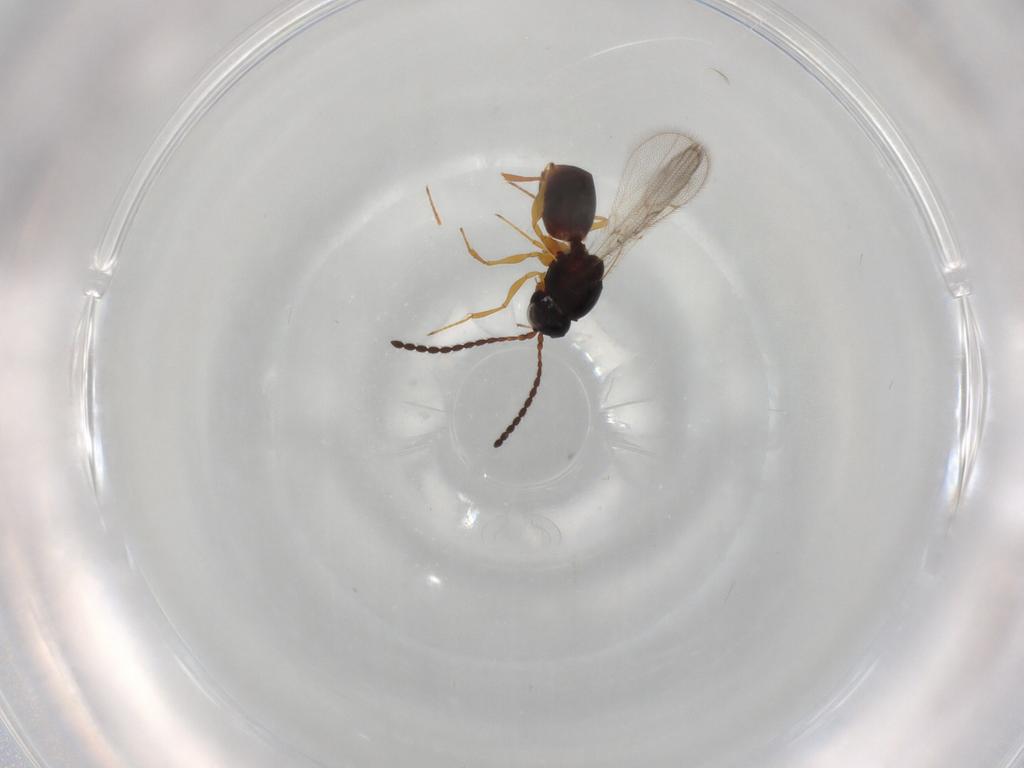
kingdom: Animalia
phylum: Arthropoda
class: Insecta
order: Hymenoptera
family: Figitidae
